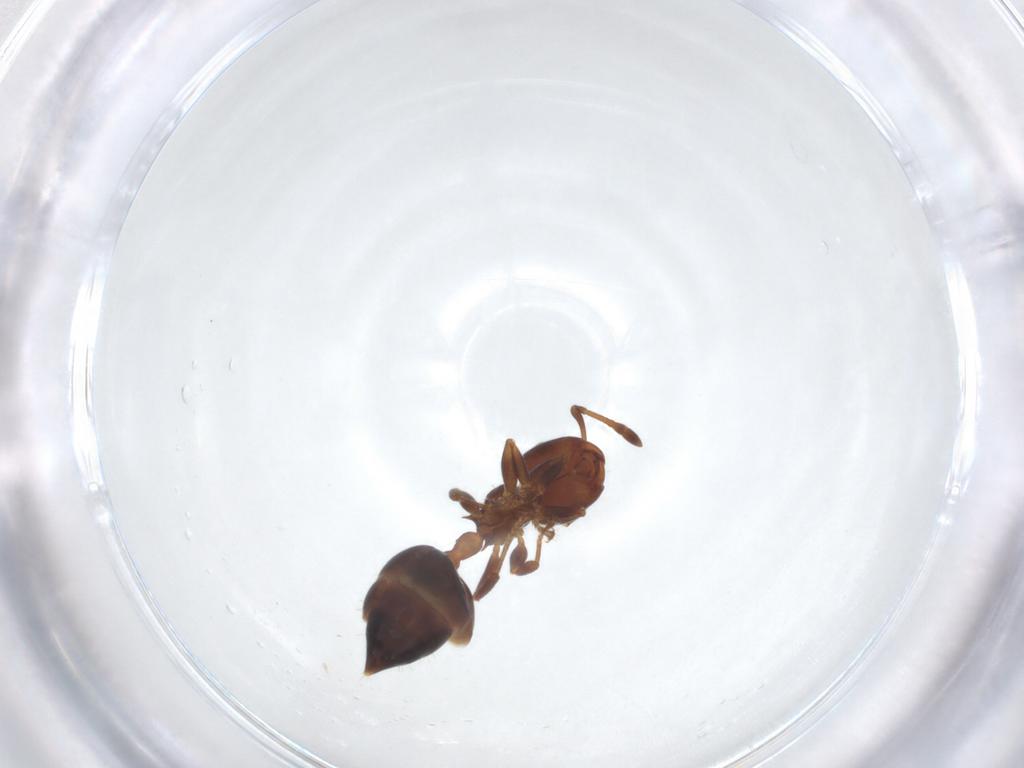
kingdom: Animalia
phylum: Arthropoda
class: Insecta
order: Hymenoptera
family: Formicidae
